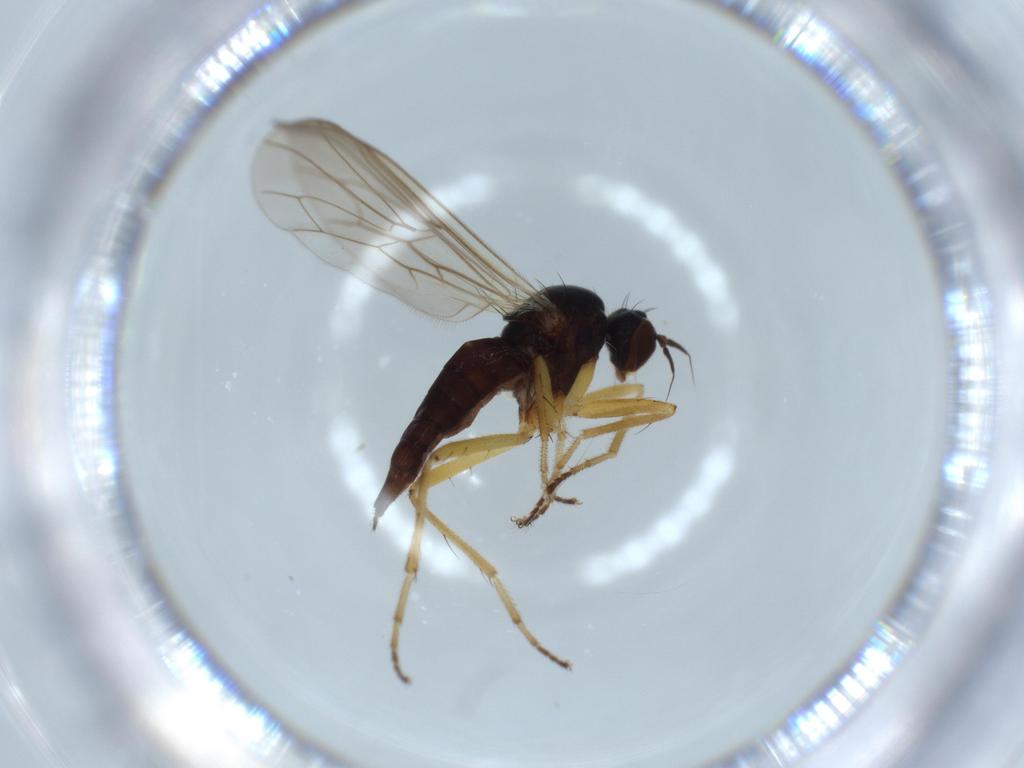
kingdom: Animalia
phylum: Arthropoda
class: Insecta
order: Diptera
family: Hybotidae
